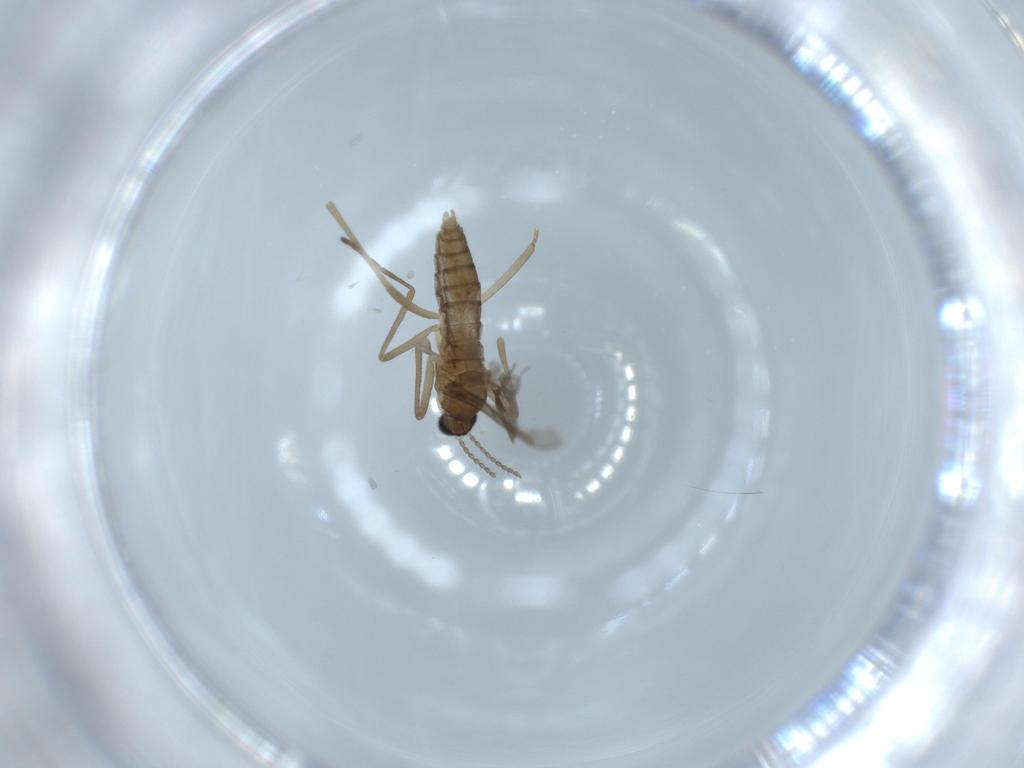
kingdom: Animalia
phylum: Arthropoda
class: Insecta
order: Diptera
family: Cecidomyiidae
